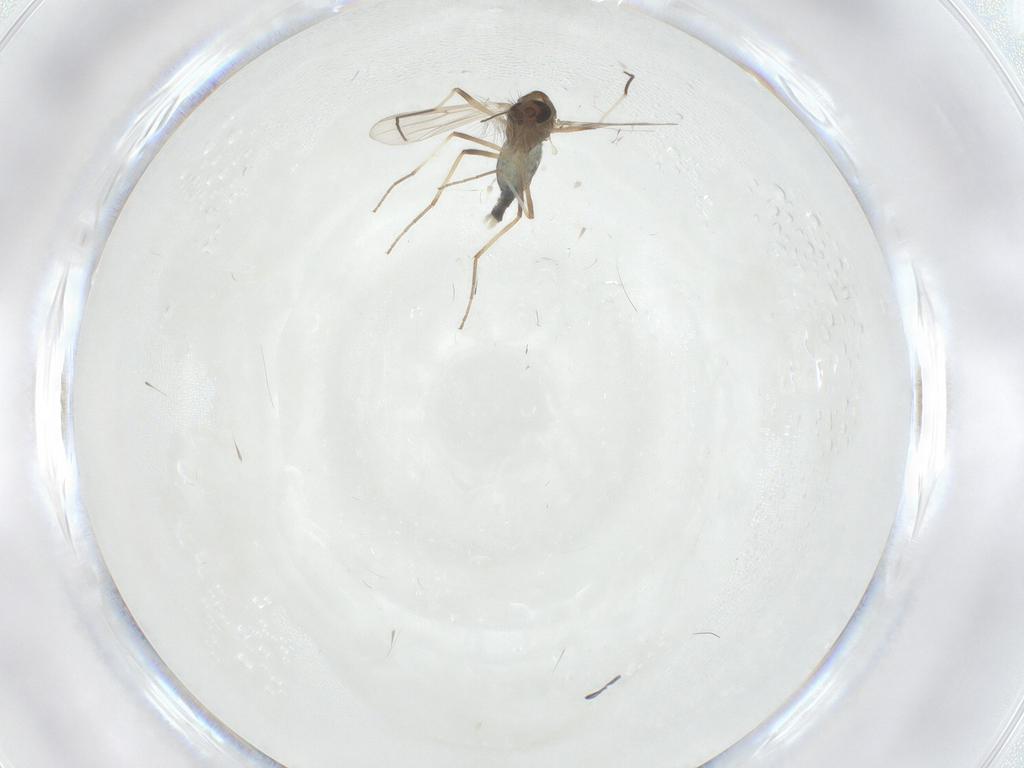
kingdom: Animalia
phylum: Arthropoda
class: Insecta
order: Diptera
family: Chironomidae
